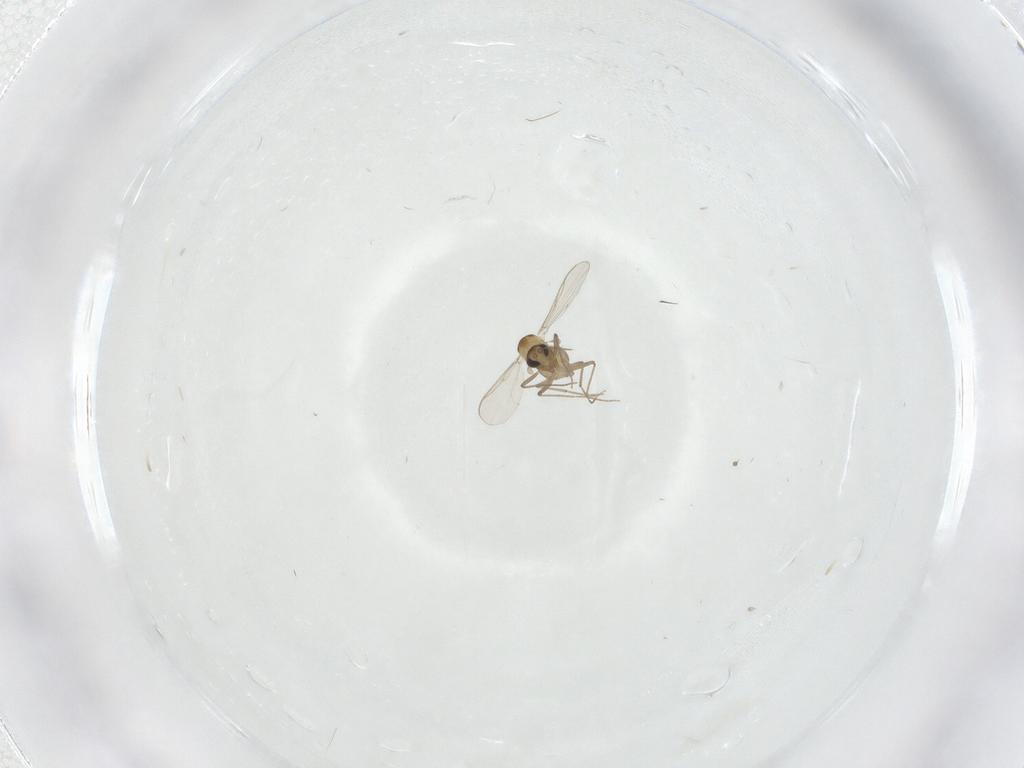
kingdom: Animalia
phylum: Arthropoda
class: Insecta
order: Diptera
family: Chironomidae
